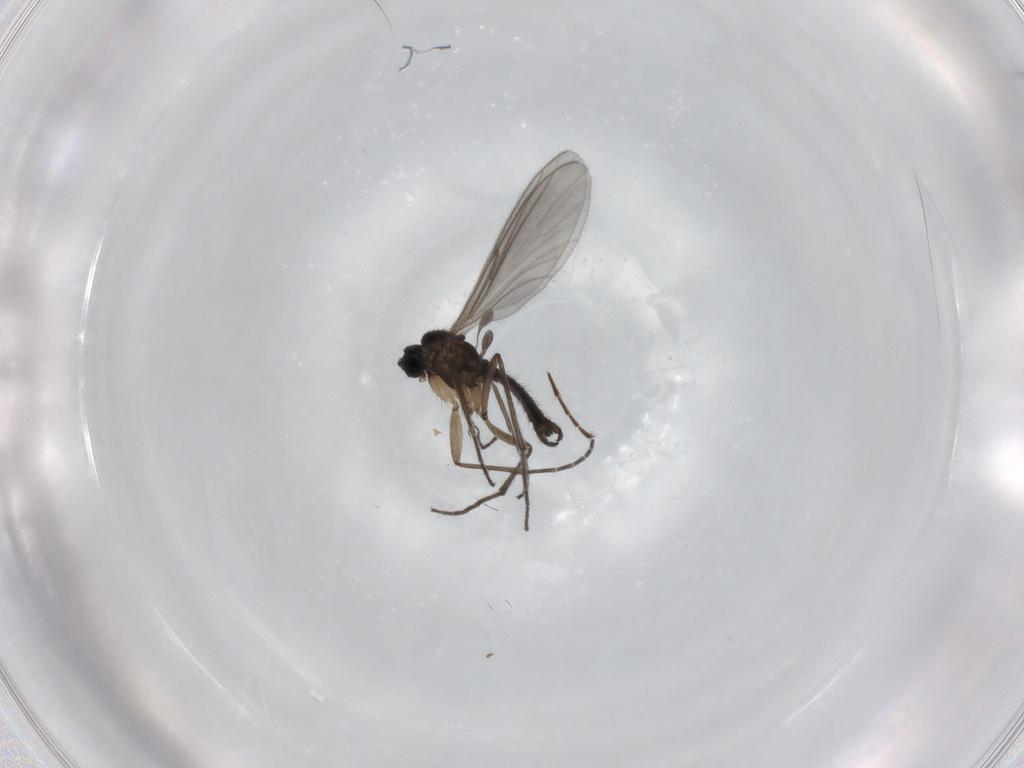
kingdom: Animalia
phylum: Arthropoda
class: Insecta
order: Diptera
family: Sciaridae
